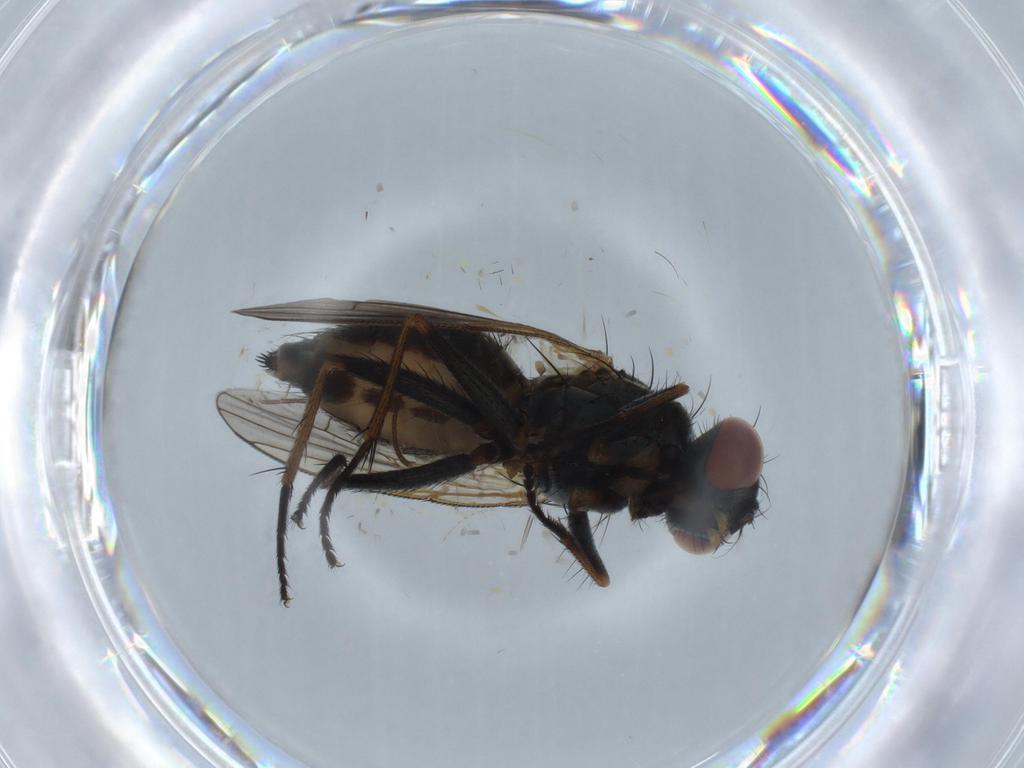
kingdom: Animalia
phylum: Arthropoda
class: Insecta
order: Diptera
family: Muscidae
